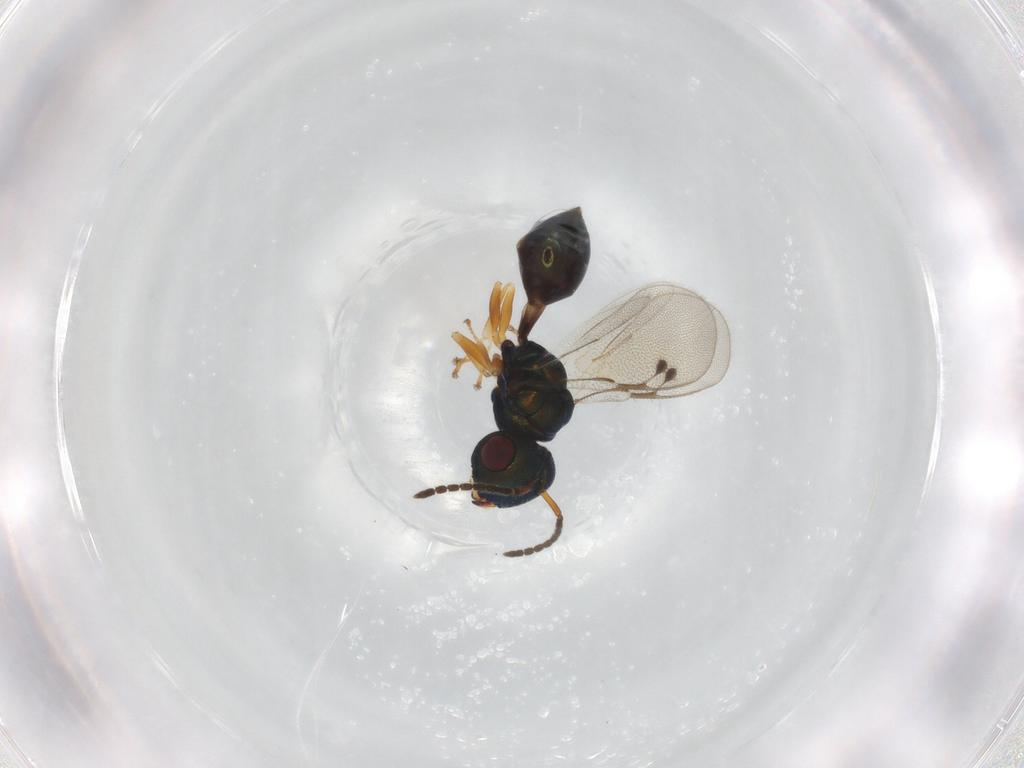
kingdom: Animalia
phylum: Arthropoda
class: Insecta
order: Hymenoptera
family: Pteromalidae
